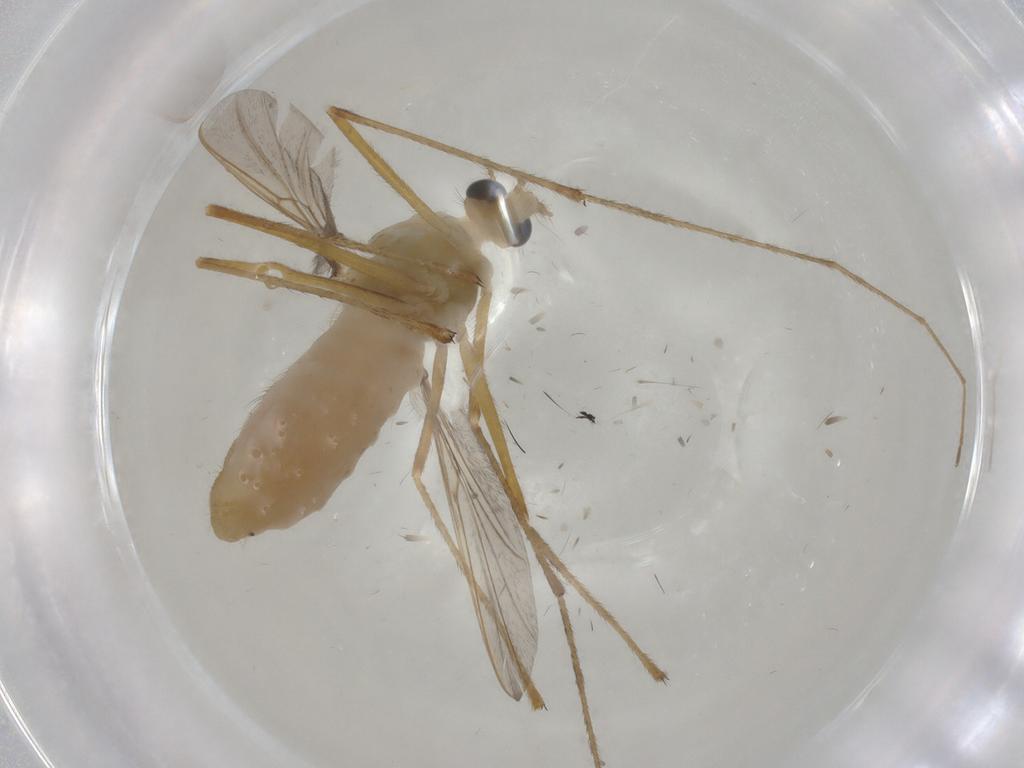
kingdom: Animalia
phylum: Arthropoda
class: Insecta
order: Diptera
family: Chironomidae
